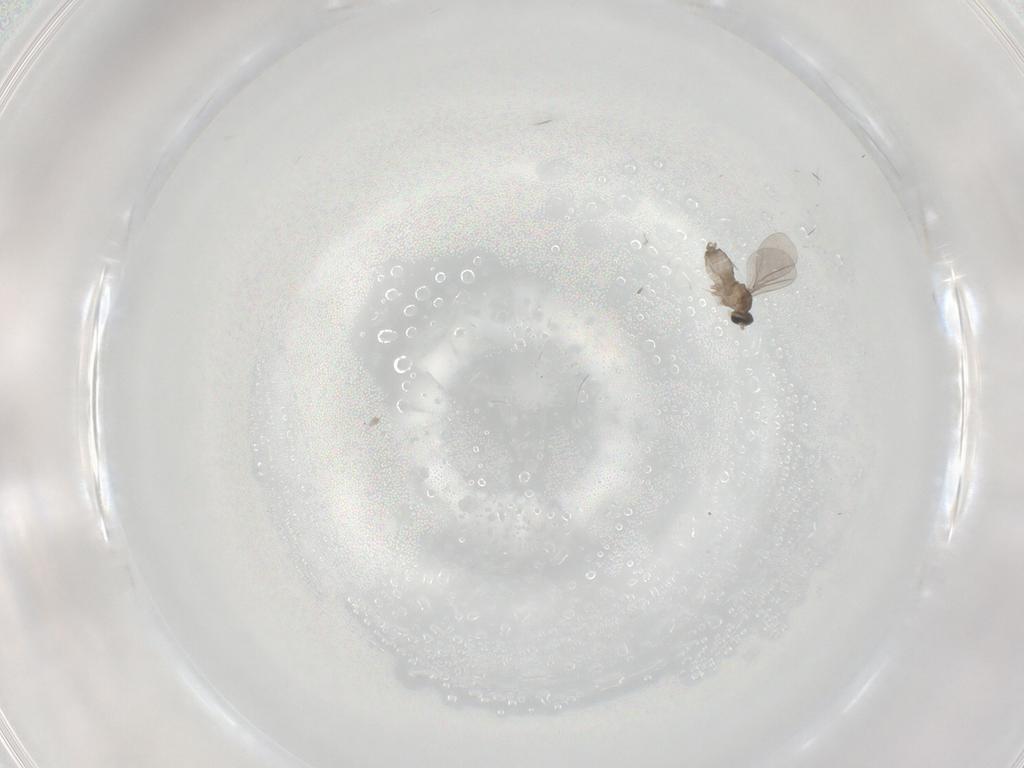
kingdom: Animalia
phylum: Arthropoda
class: Insecta
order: Diptera
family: Cecidomyiidae
